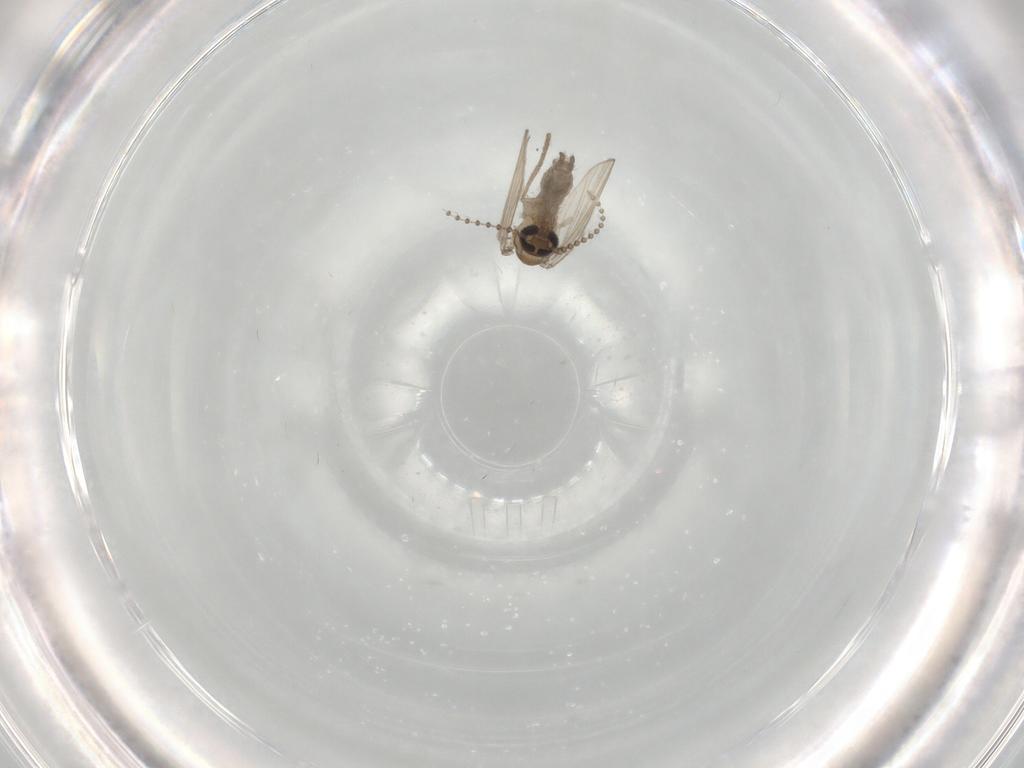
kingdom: Animalia
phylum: Arthropoda
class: Insecta
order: Diptera
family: Psychodidae
